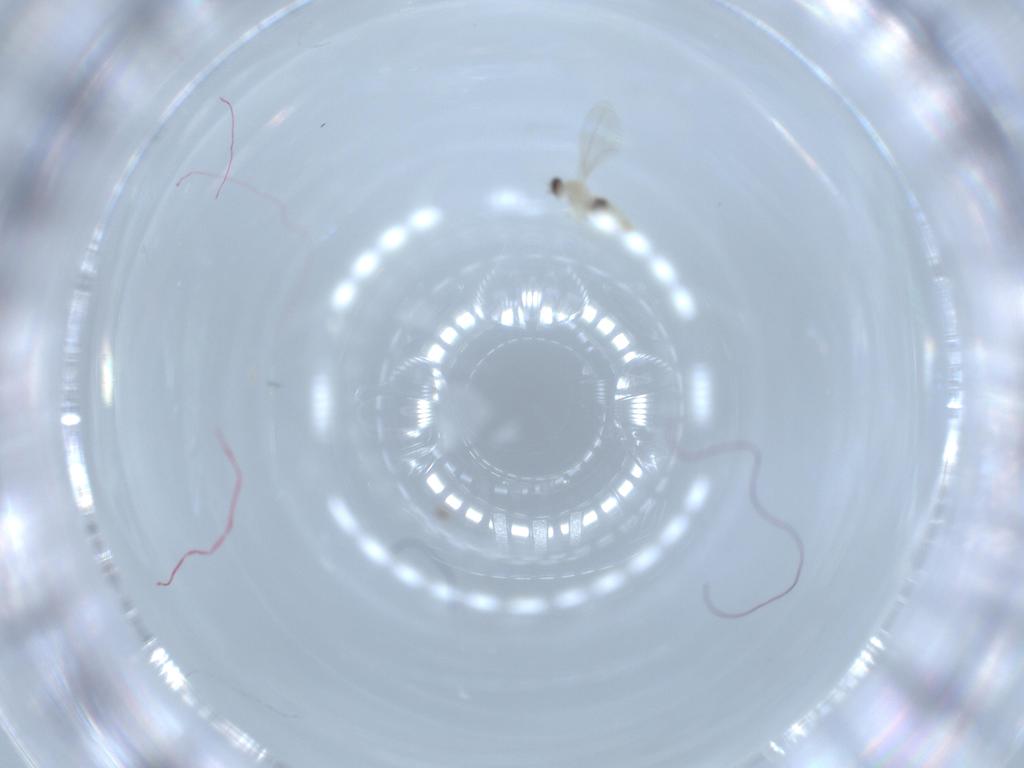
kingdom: Animalia
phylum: Arthropoda
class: Insecta
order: Diptera
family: Cecidomyiidae
